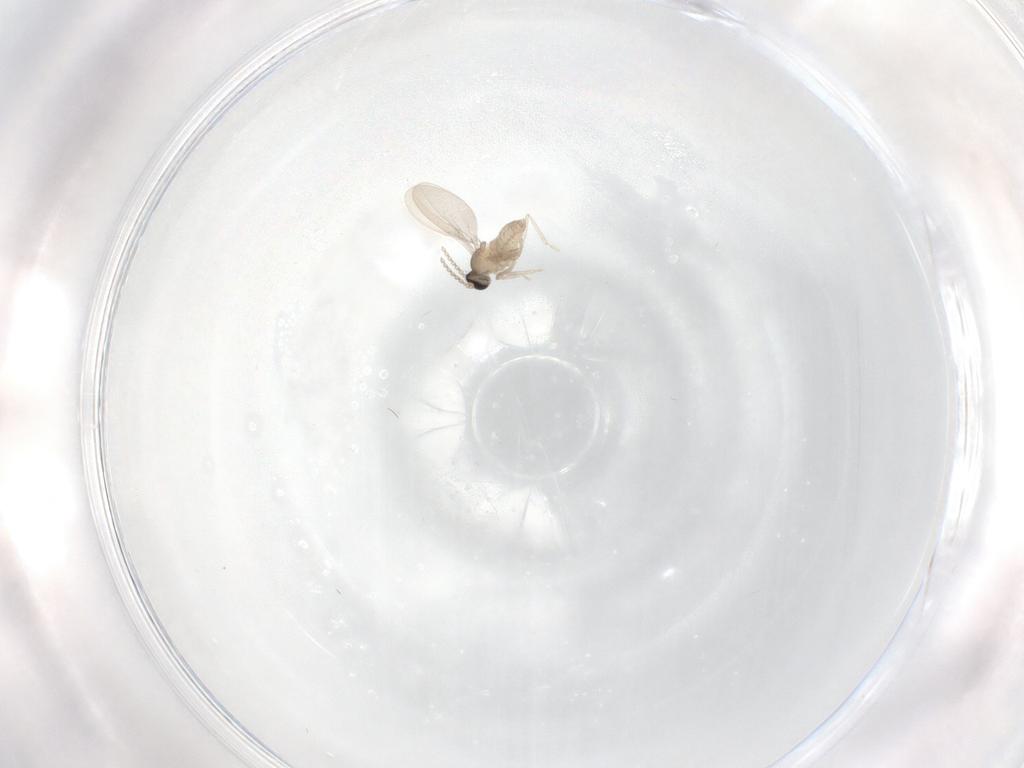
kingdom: Animalia
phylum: Arthropoda
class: Insecta
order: Diptera
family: Cecidomyiidae
